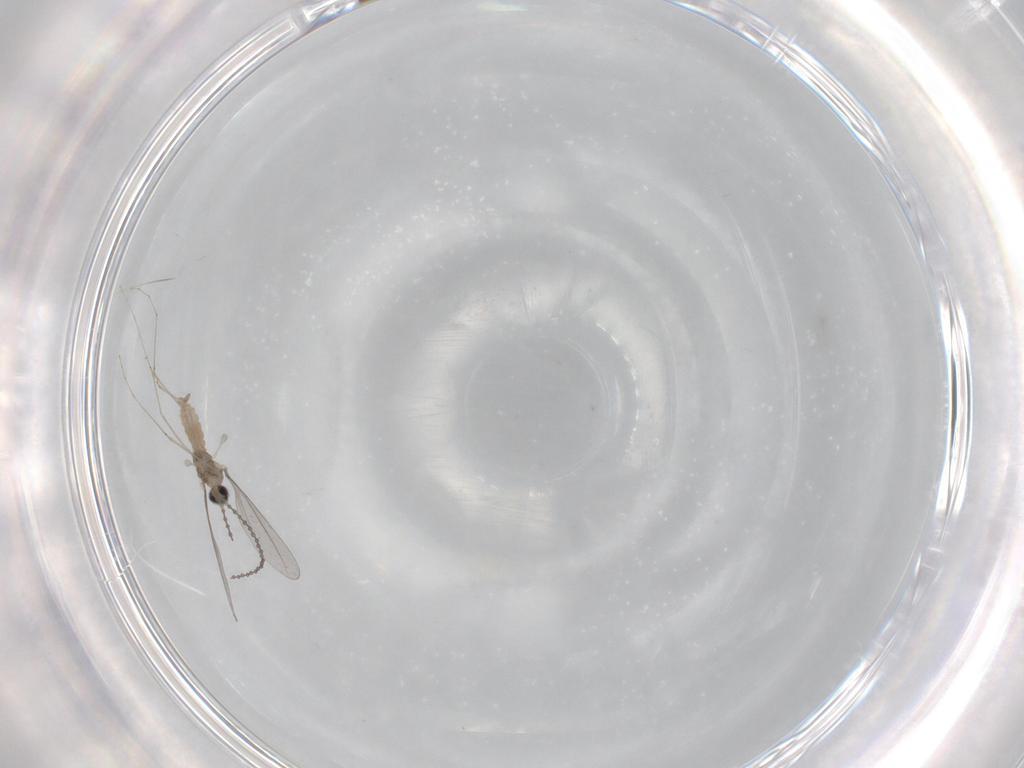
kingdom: Animalia
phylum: Arthropoda
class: Insecta
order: Diptera
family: Cecidomyiidae
